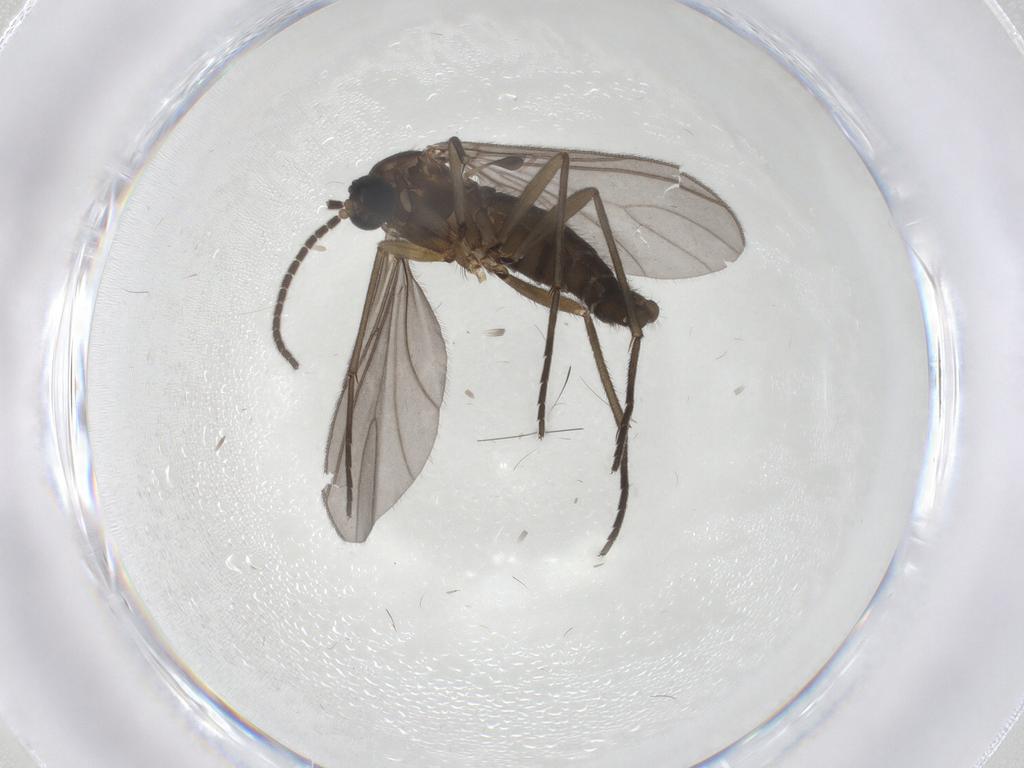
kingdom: Animalia
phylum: Arthropoda
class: Insecta
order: Diptera
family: Sciaridae
